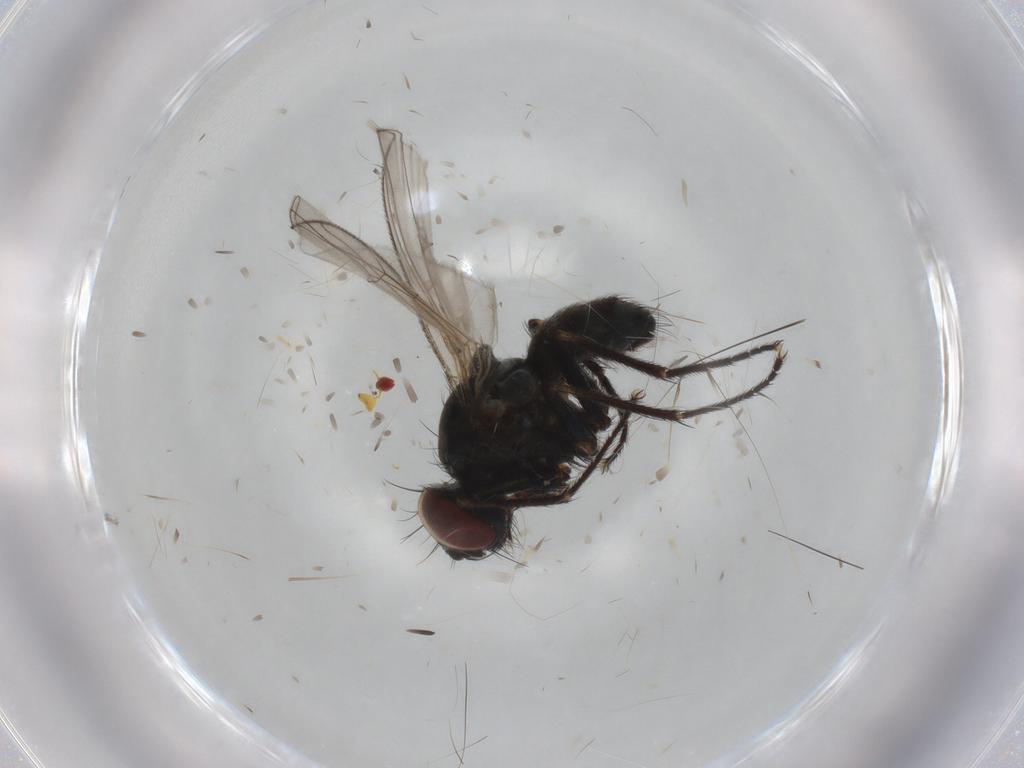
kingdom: Animalia
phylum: Arthropoda
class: Insecta
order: Diptera
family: Muscidae
